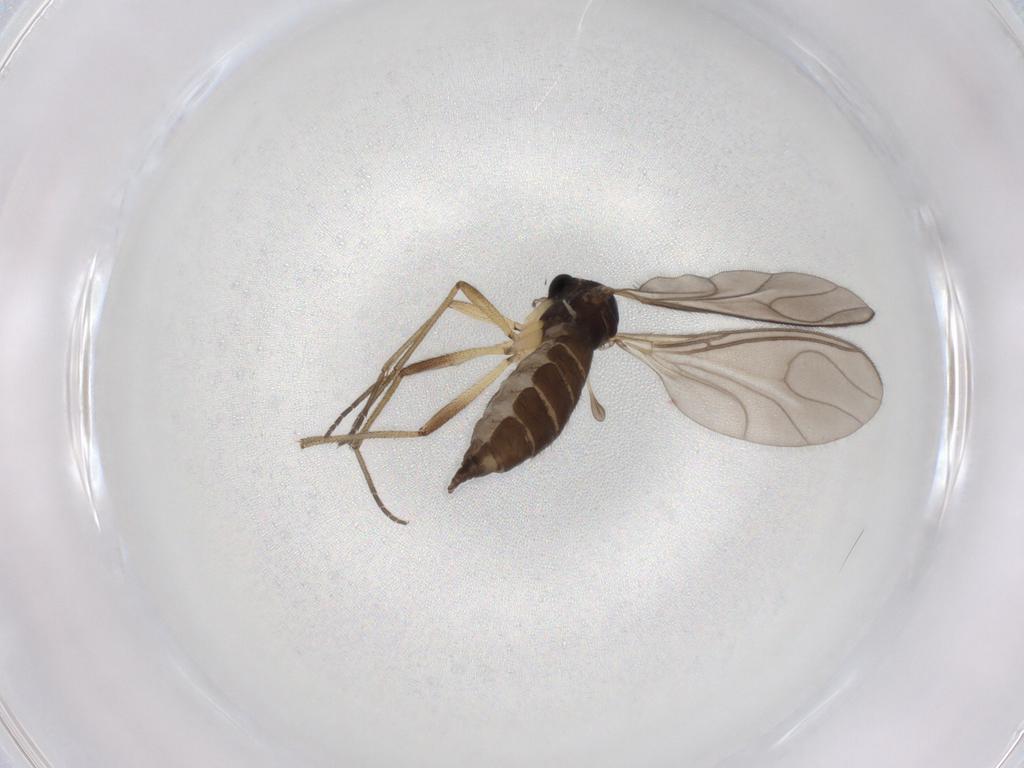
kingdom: Animalia
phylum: Arthropoda
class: Insecta
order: Diptera
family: Sciaridae
